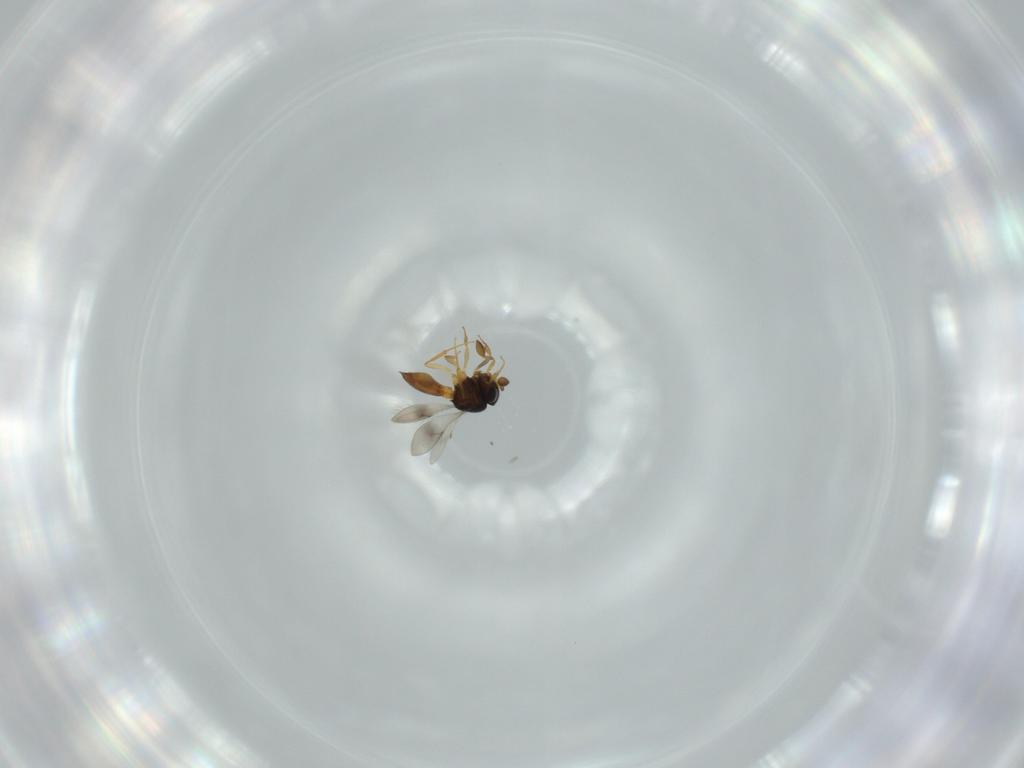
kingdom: Animalia
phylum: Arthropoda
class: Insecta
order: Hymenoptera
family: Scelionidae
